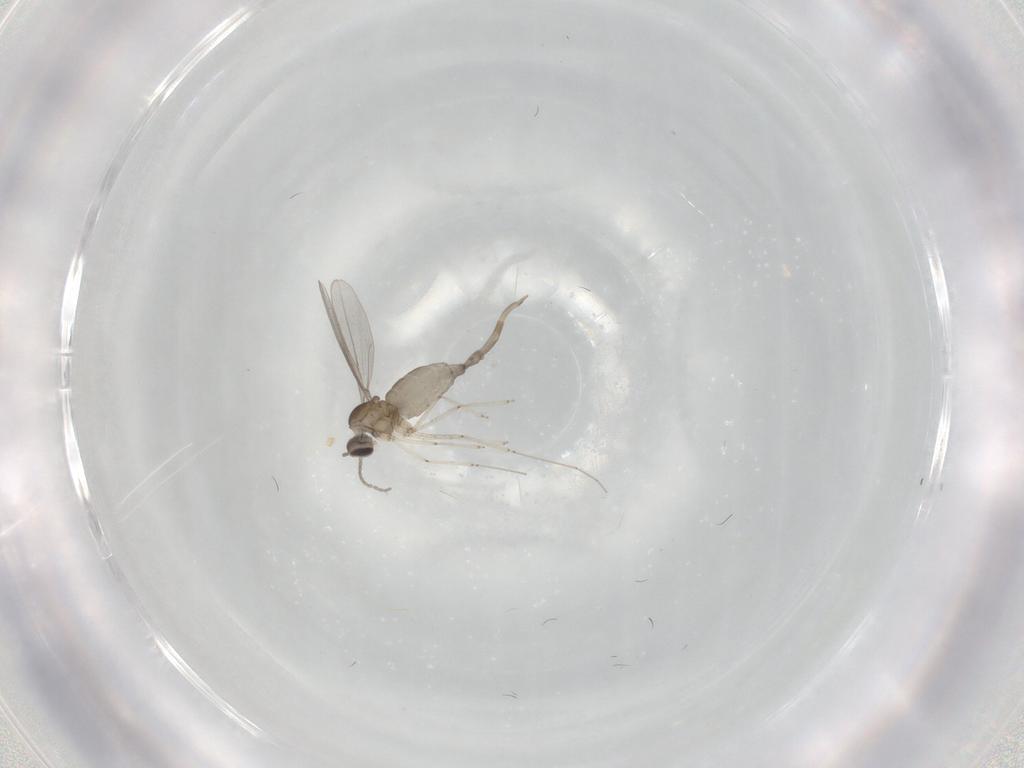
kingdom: Animalia
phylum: Arthropoda
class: Insecta
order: Diptera
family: Cecidomyiidae
